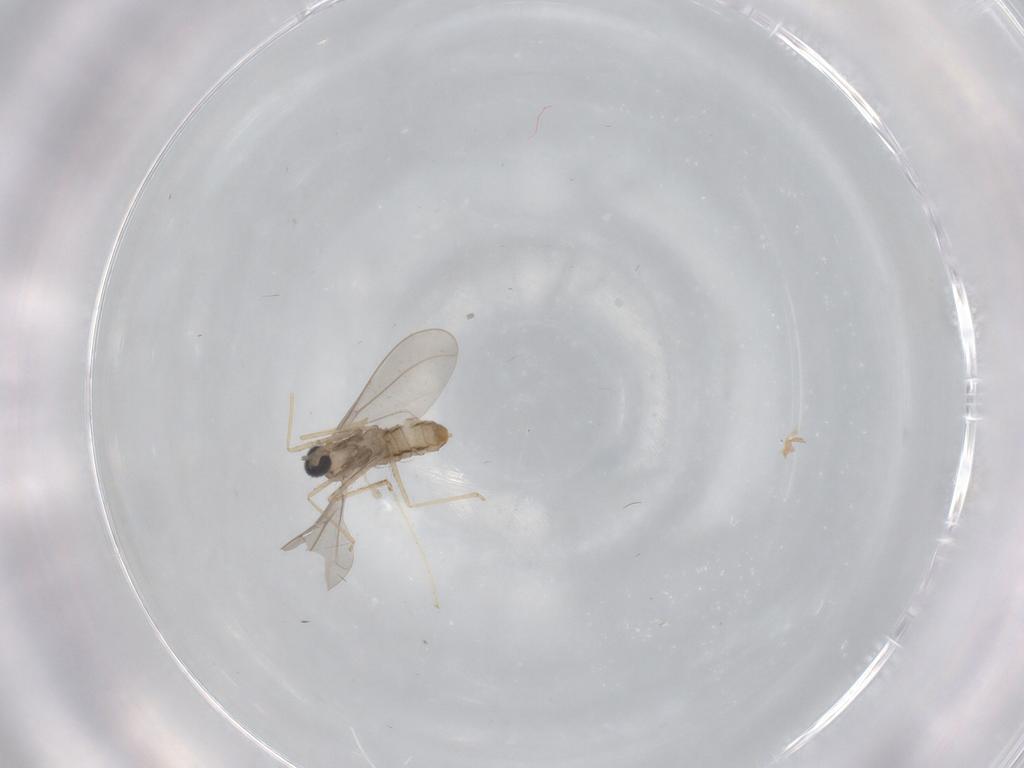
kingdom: Animalia
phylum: Arthropoda
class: Insecta
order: Diptera
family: Cecidomyiidae
